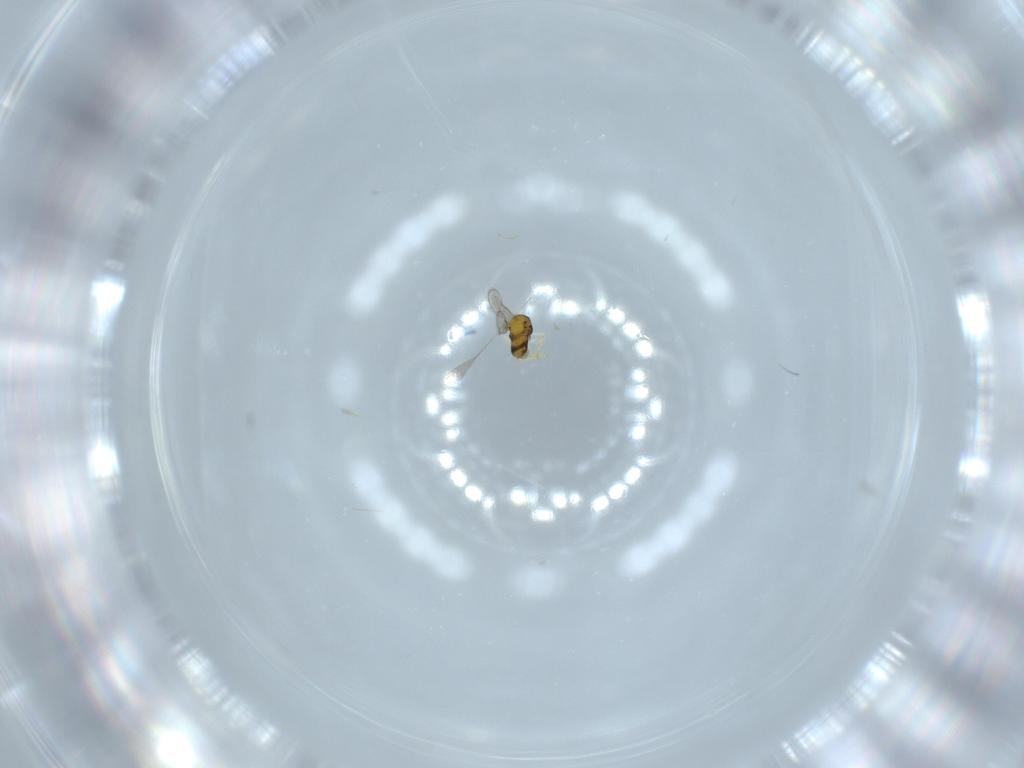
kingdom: Animalia
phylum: Arthropoda
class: Insecta
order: Hymenoptera
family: Aphelinidae
